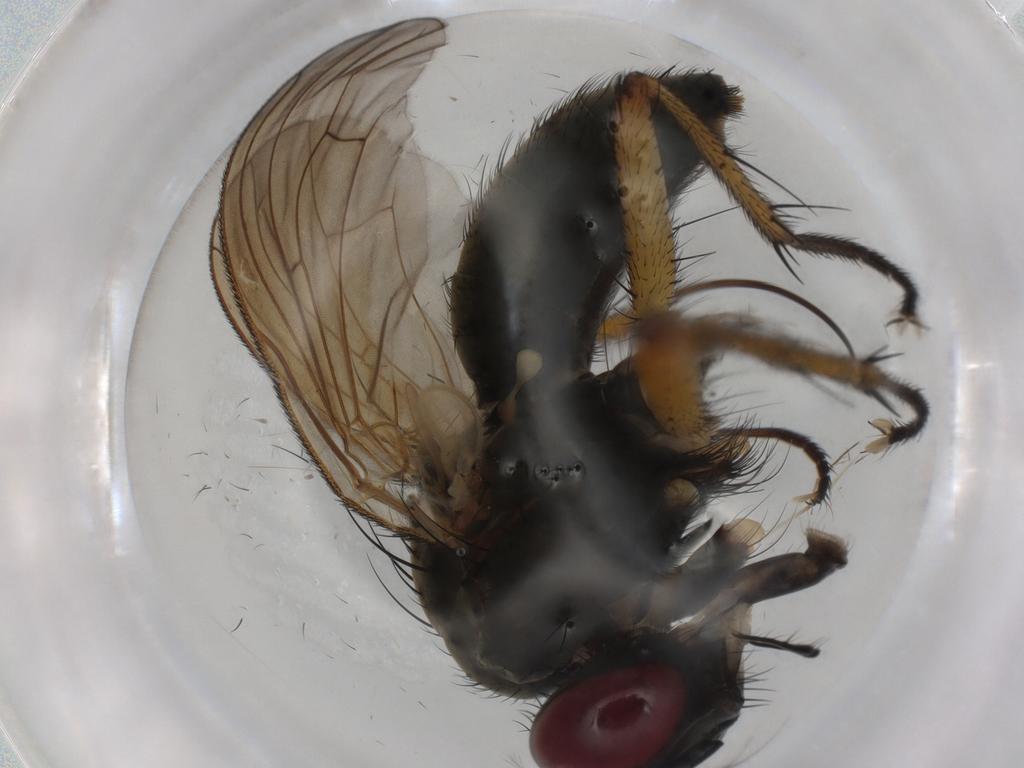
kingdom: Animalia
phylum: Arthropoda
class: Insecta
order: Diptera
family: Muscidae
